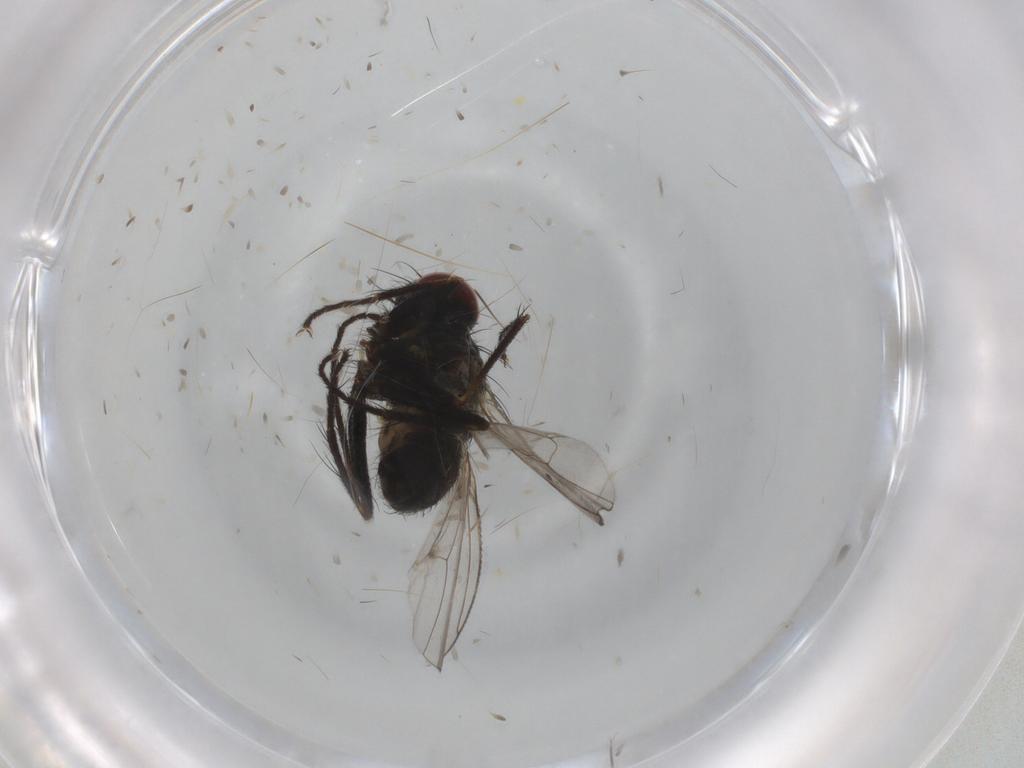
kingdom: Animalia
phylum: Arthropoda
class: Insecta
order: Diptera
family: Muscidae
